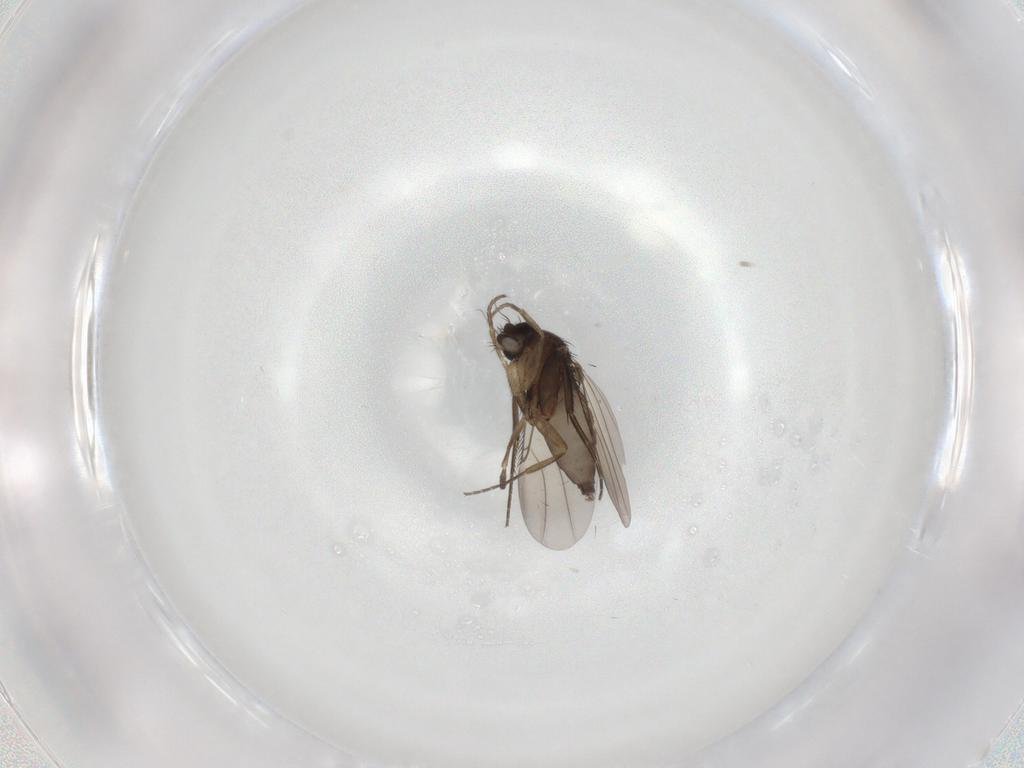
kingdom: Animalia
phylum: Arthropoda
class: Insecta
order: Diptera
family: Phoridae
